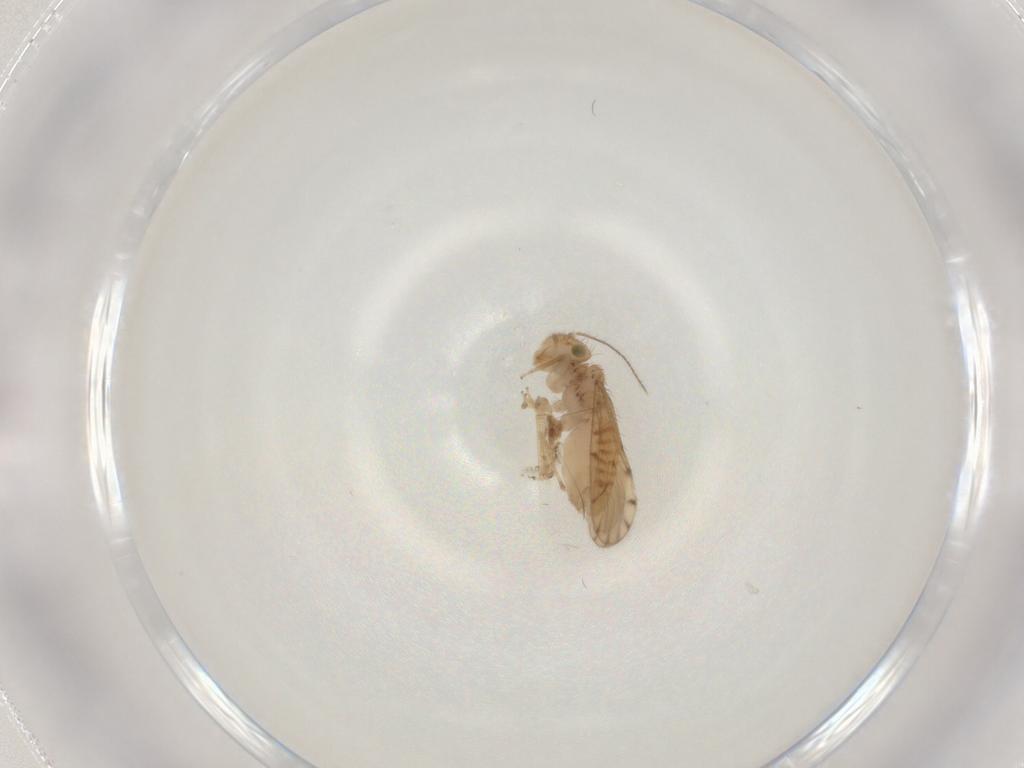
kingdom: Animalia
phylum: Arthropoda
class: Insecta
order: Psocodea
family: Ectopsocidae
